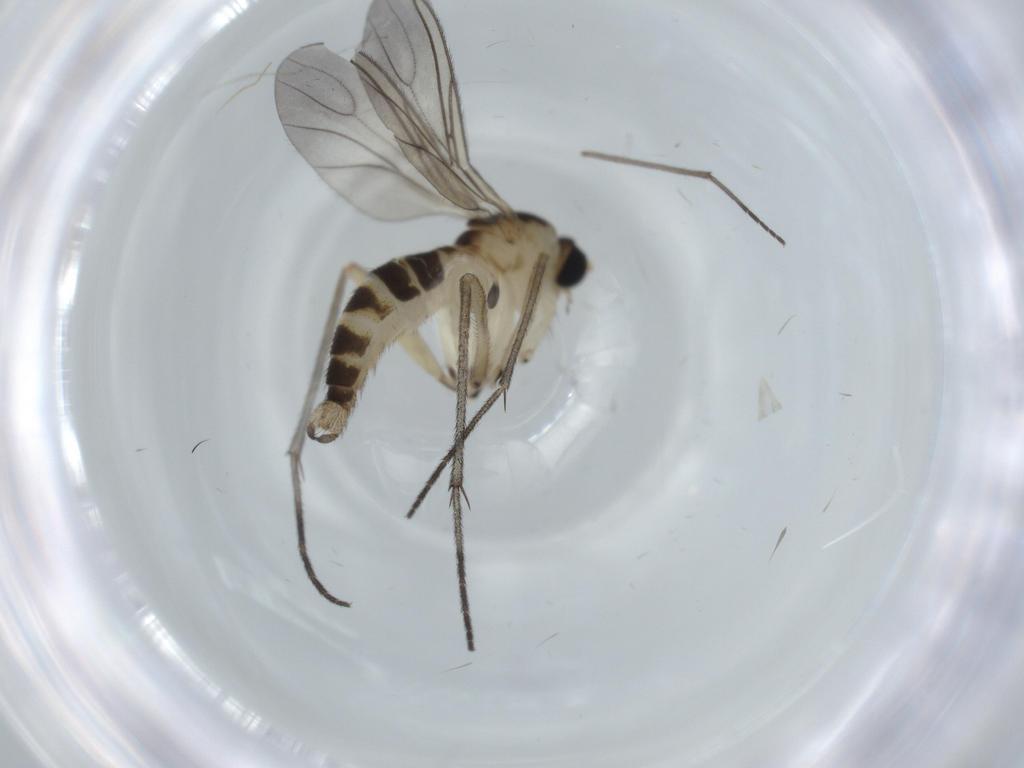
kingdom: Animalia
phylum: Arthropoda
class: Insecta
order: Diptera
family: Sciaridae
